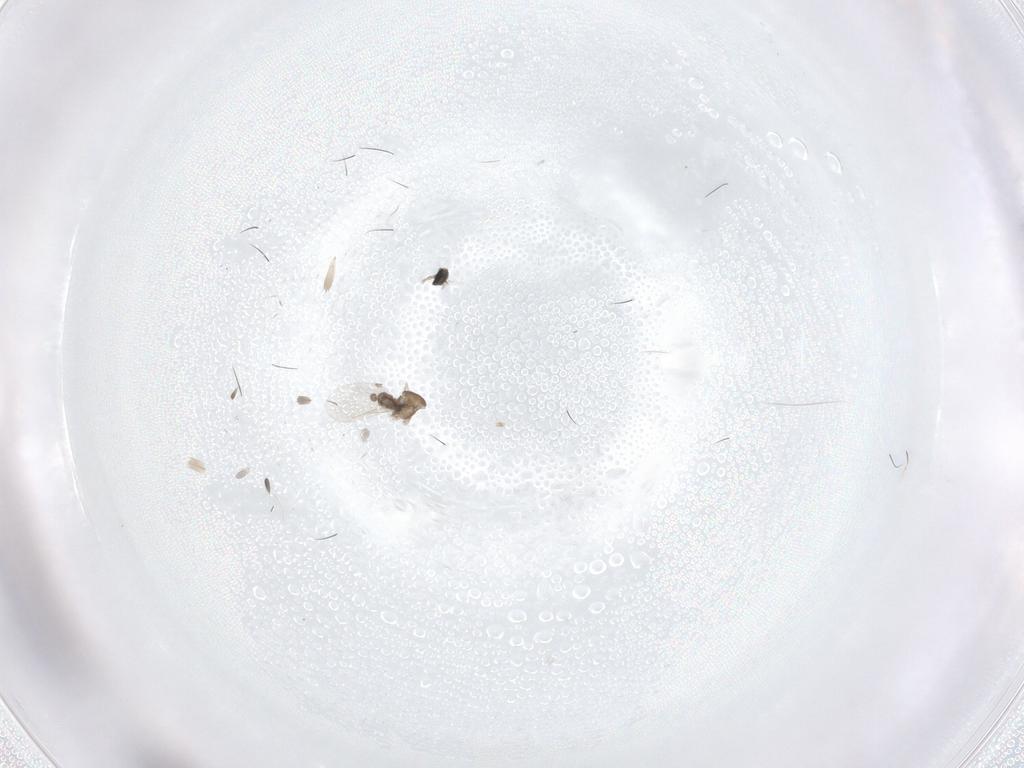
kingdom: Animalia
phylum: Arthropoda
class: Insecta
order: Diptera
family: Cecidomyiidae
